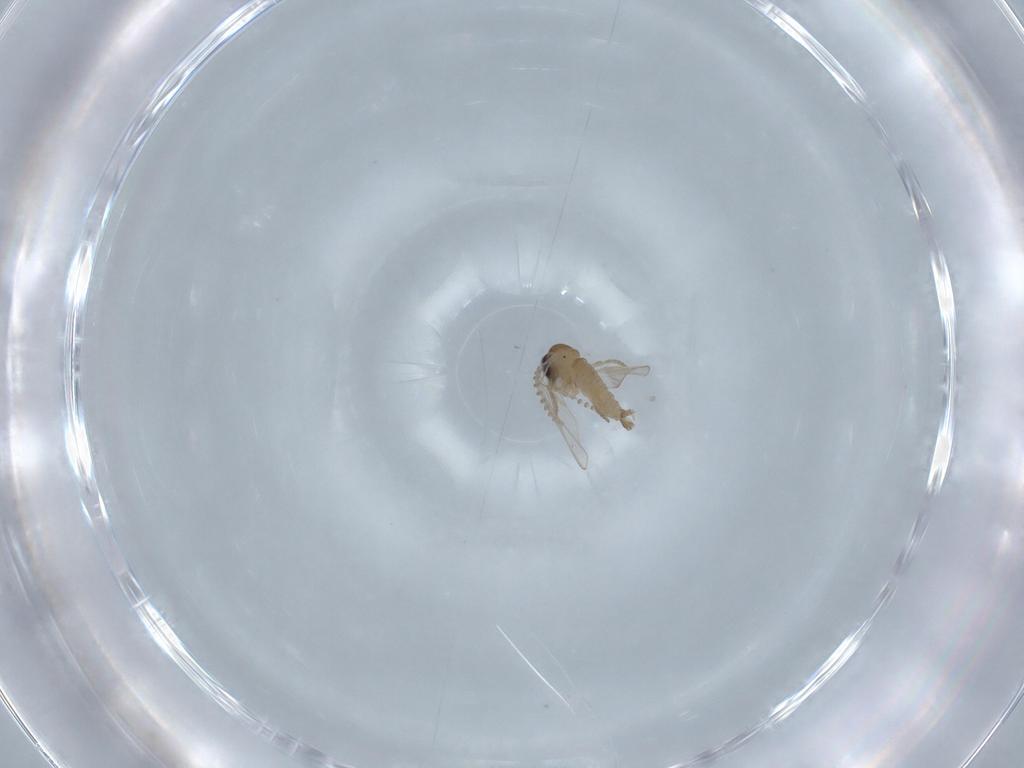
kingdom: Animalia
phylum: Arthropoda
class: Insecta
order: Diptera
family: Psychodidae
